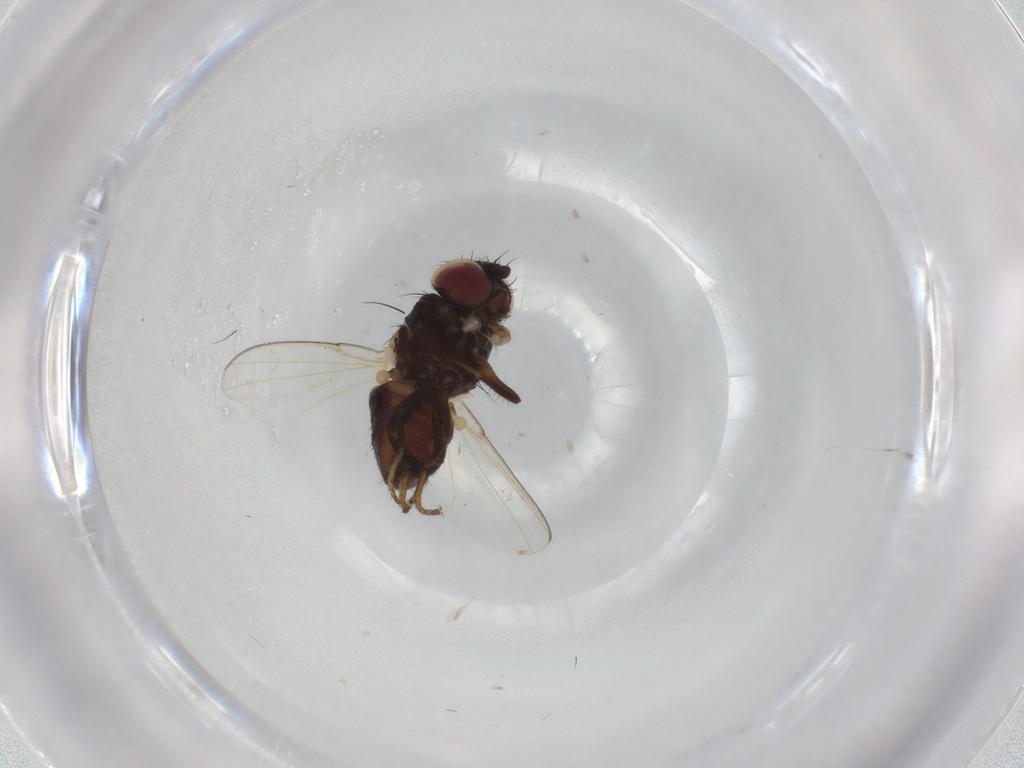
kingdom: Animalia
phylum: Arthropoda
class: Insecta
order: Diptera
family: Milichiidae
